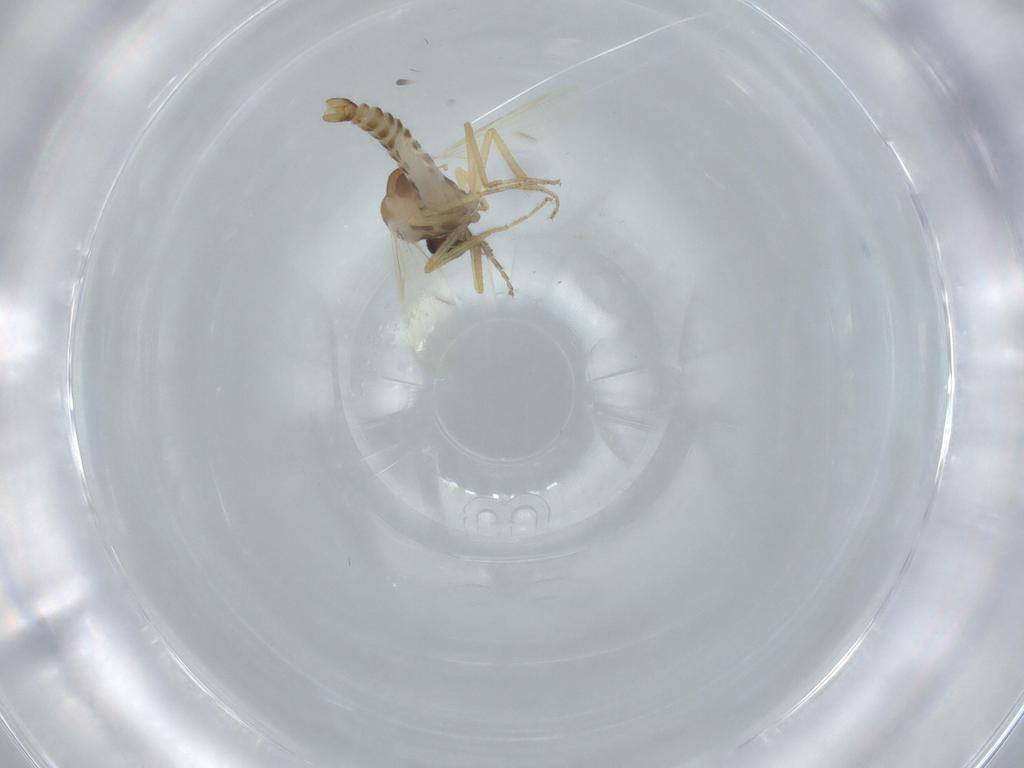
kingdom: Animalia
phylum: Arthropoda
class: Insecta
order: Diptera
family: Ceratopogonidae
